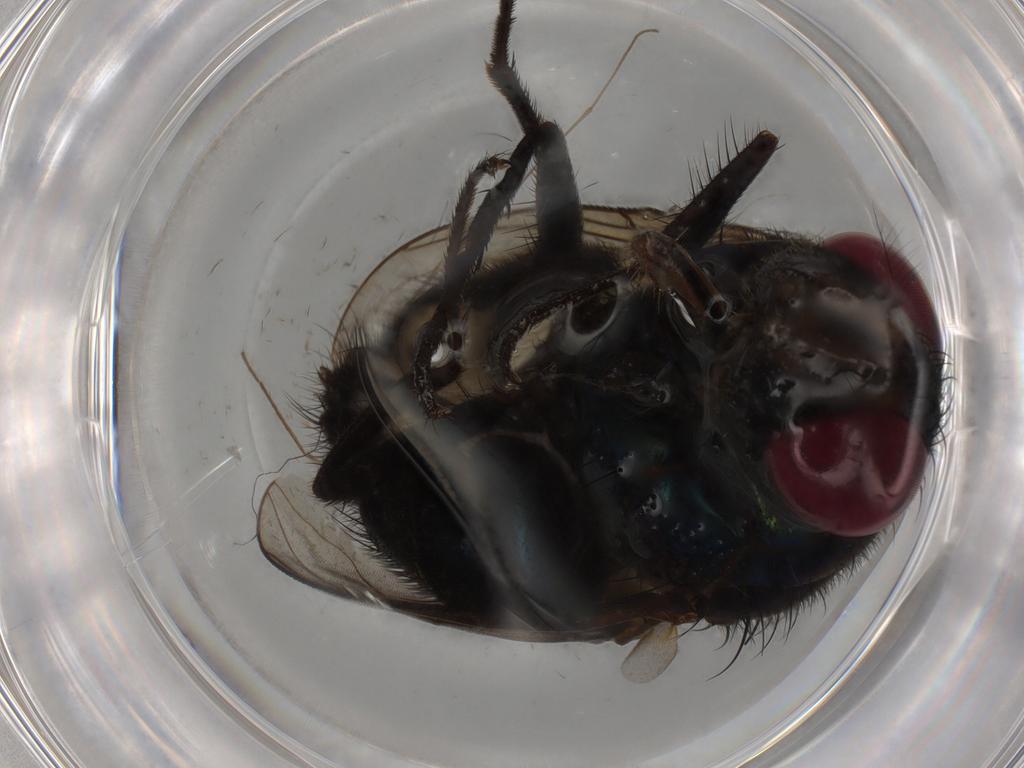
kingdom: Animalia
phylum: Arthropoda
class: Insecta
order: Diptera
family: Calliphoridae
